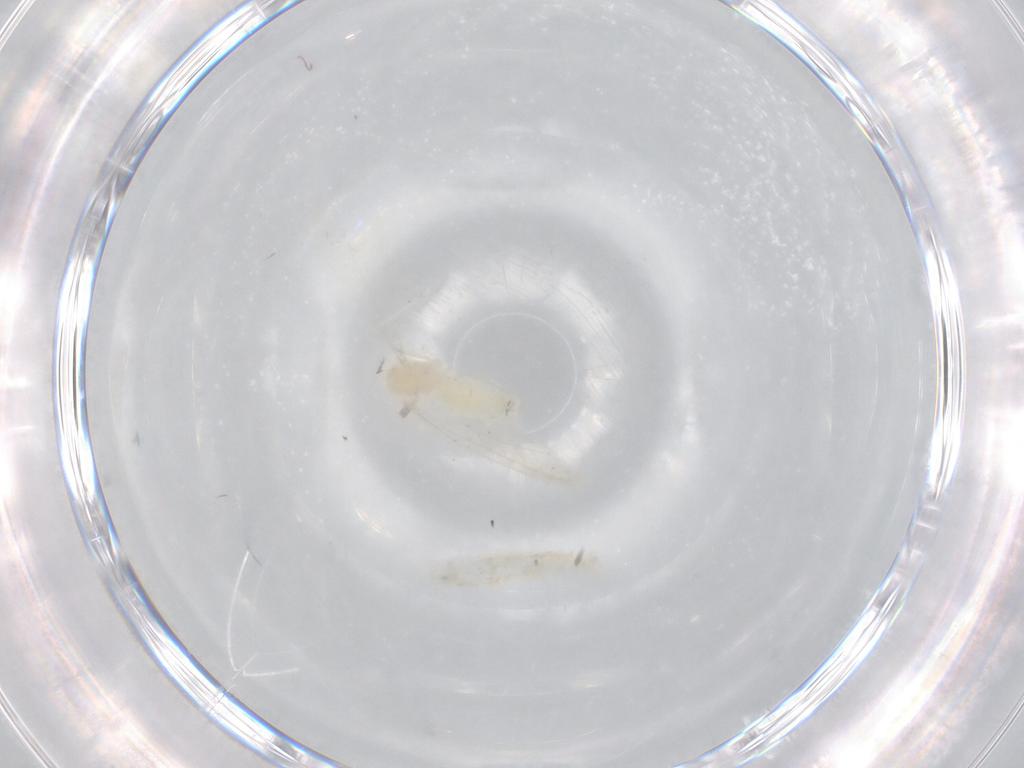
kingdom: Animalia
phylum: Arthropoda
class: Insecta
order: Diptera
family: Cecidomyiidae
